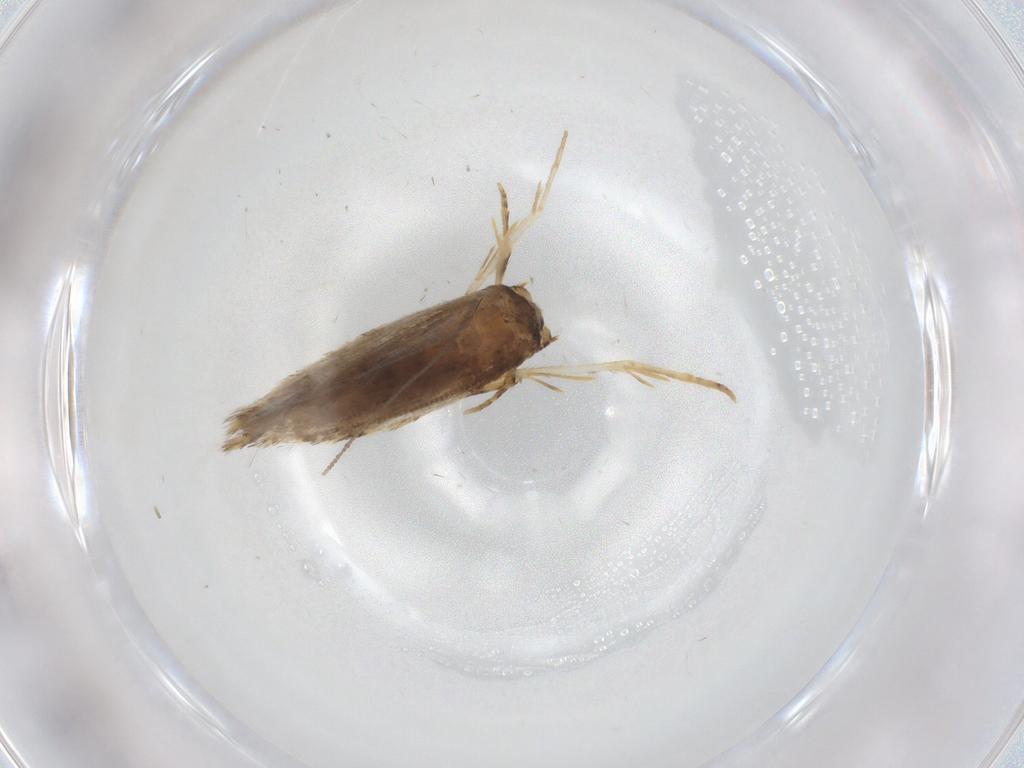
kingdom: Animalia
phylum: Arthropoda
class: Insecta
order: Lepidoptera
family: Tineidae
